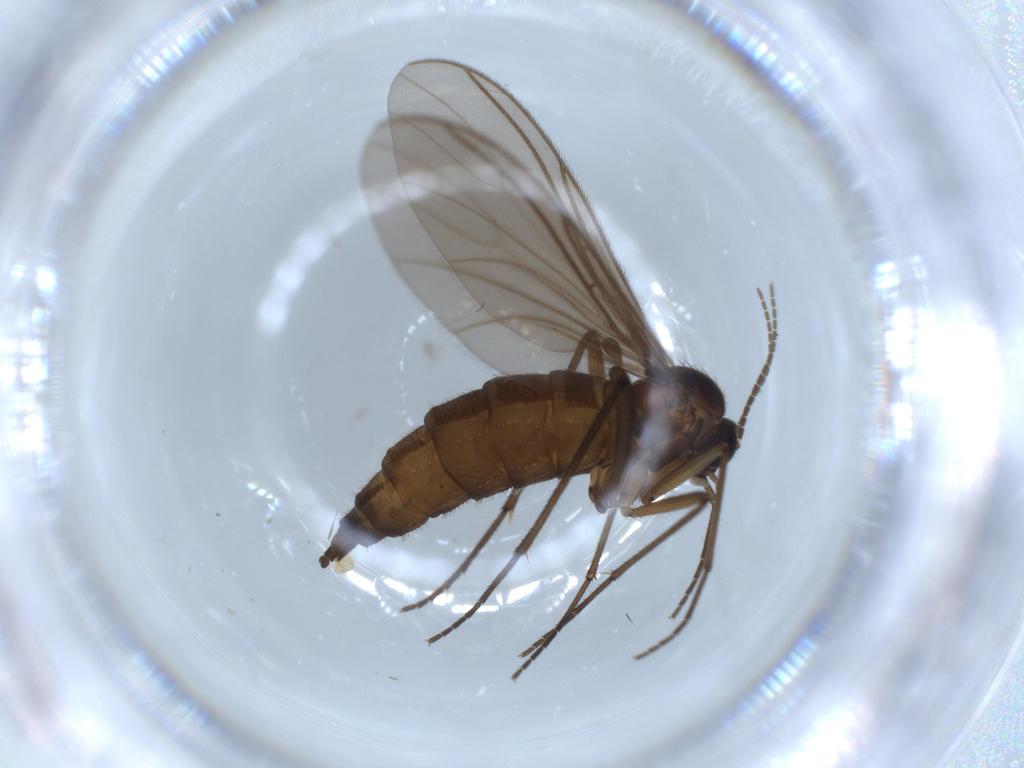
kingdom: Animalia
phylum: Arthropoda
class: Insecta
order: Diptera
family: Sciaridae
